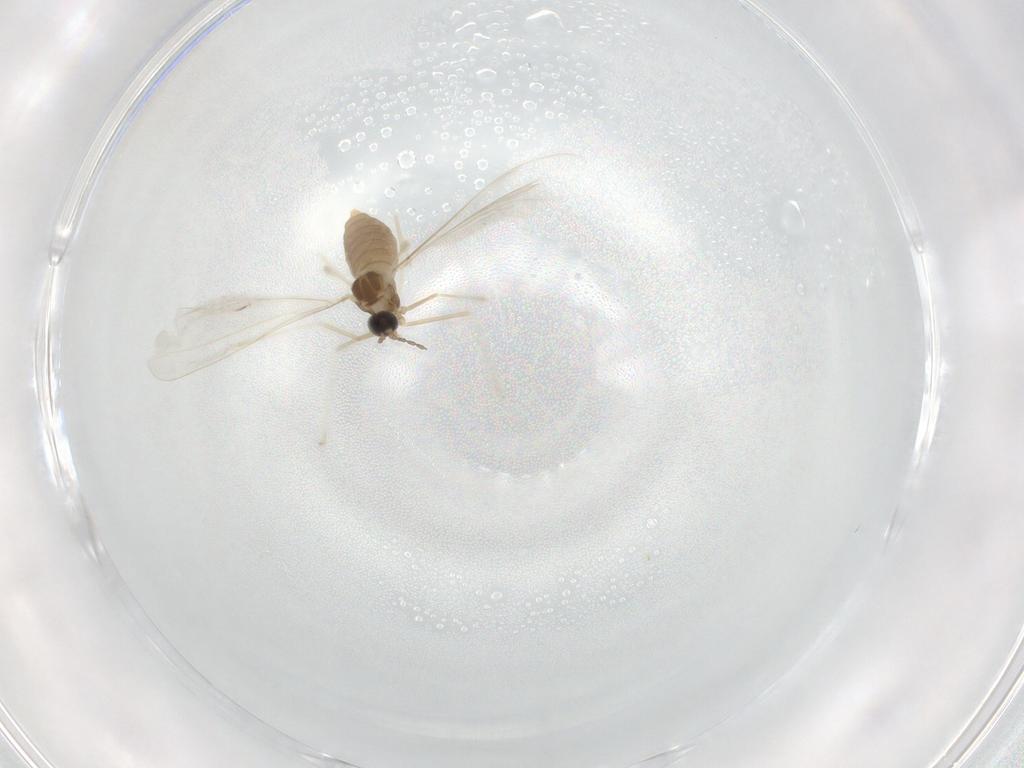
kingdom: Animalia
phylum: Arthropoda
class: Insecta
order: Diptera
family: Cecidomyiidae
